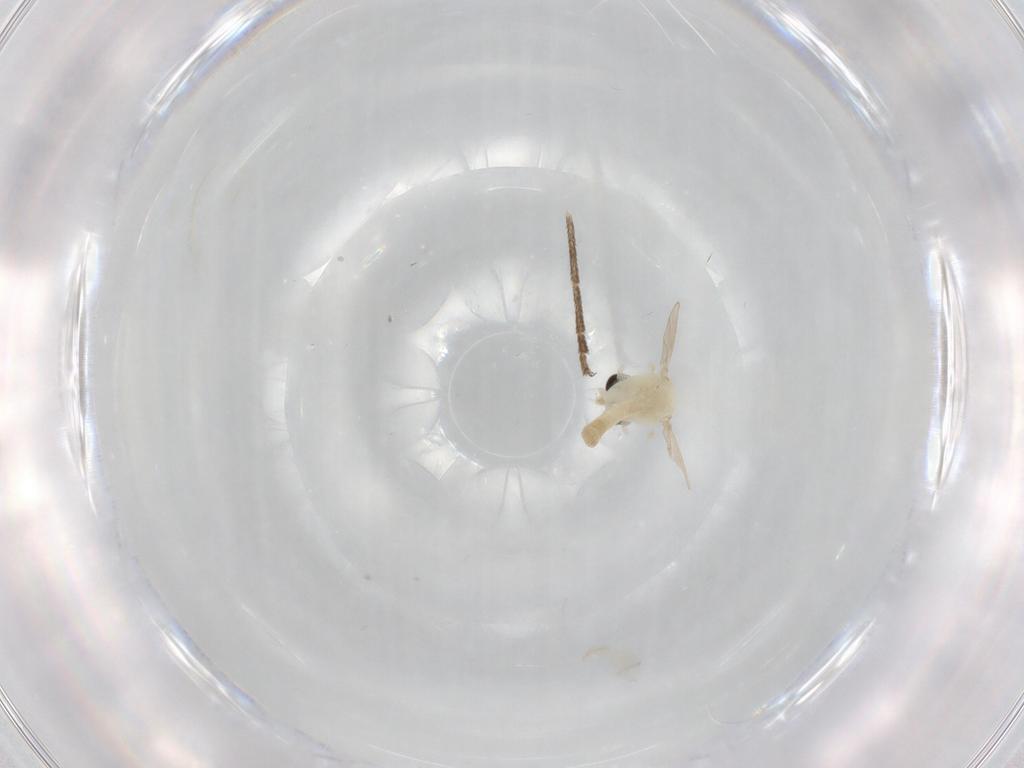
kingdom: Animalia
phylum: Arthropoda
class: Insecta
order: Diptera
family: Chironomidae
